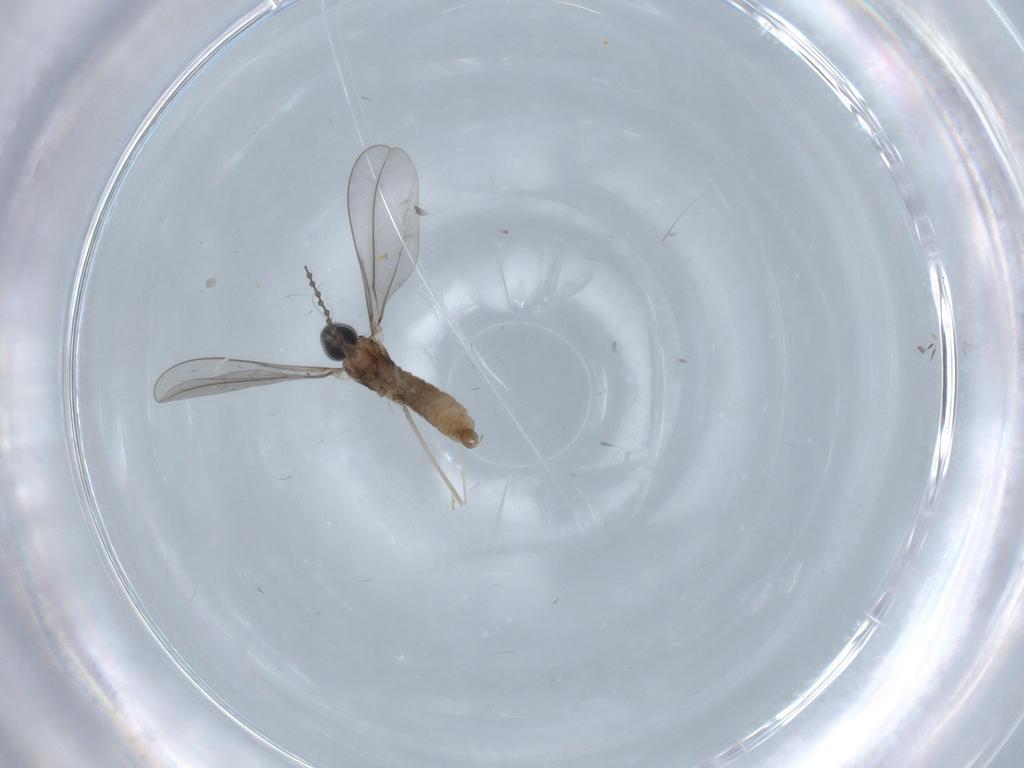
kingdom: Animalia
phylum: Arthropoda
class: Insecta
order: Diptera
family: Cecidomyiidae
